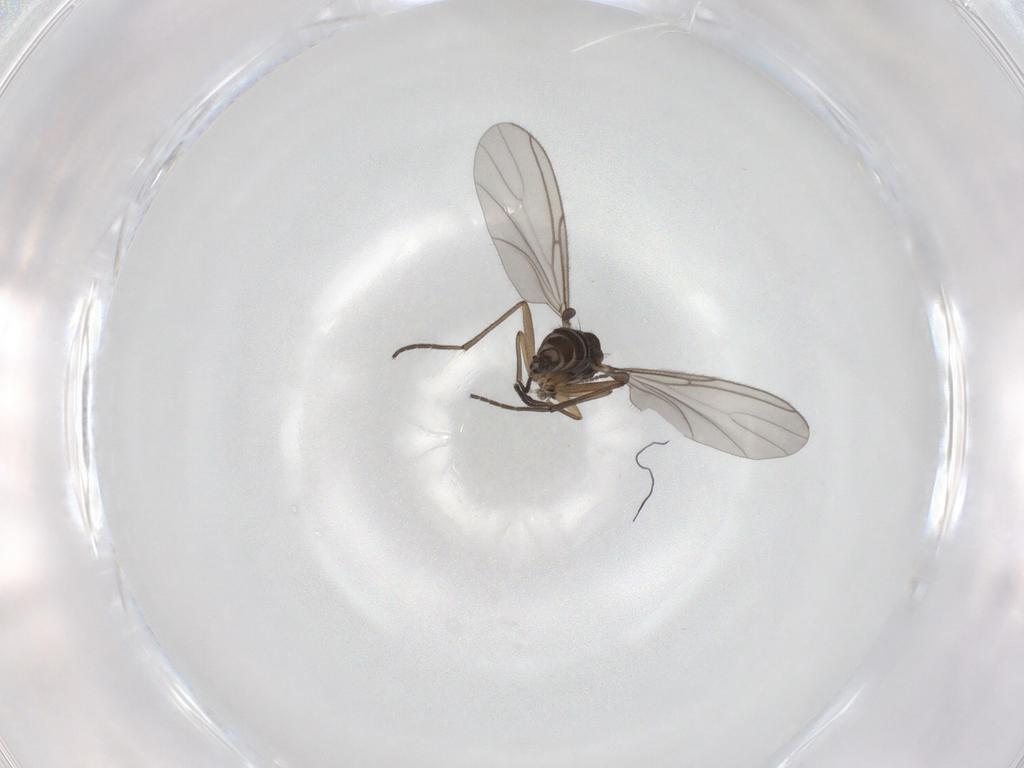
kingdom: Animalia
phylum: Arthropoda
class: Insecta
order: Diptera
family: Sciaridae
